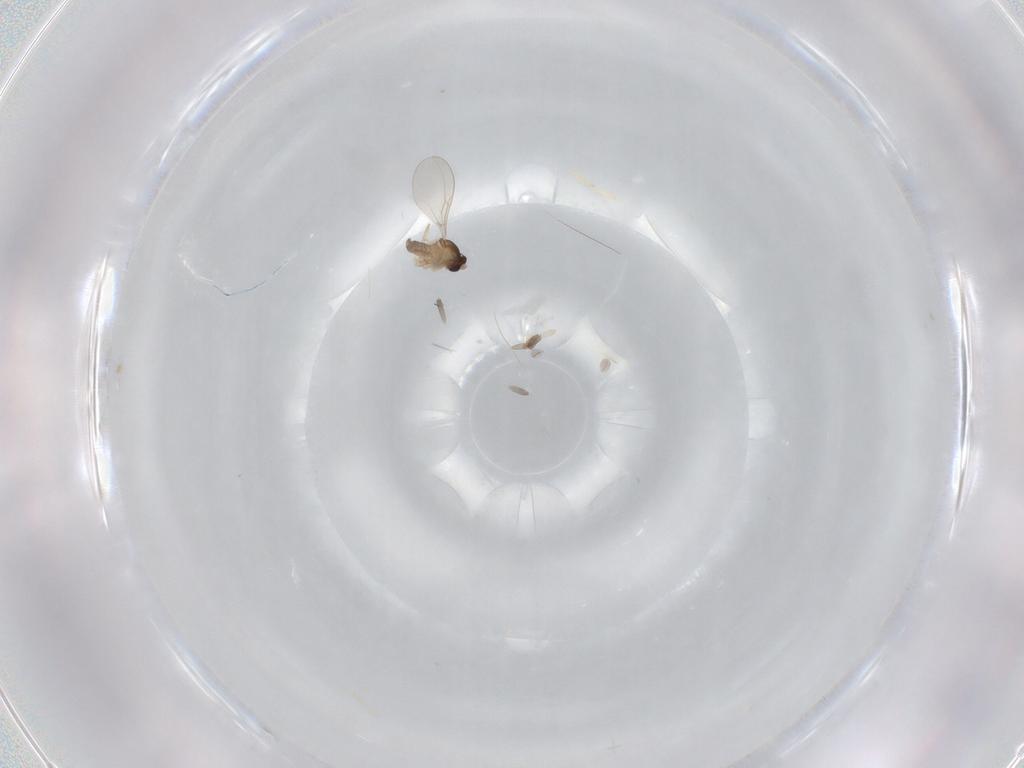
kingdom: Animalia
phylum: Arthropoda
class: Insecta
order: Diptera
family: Cecidomyiidae
